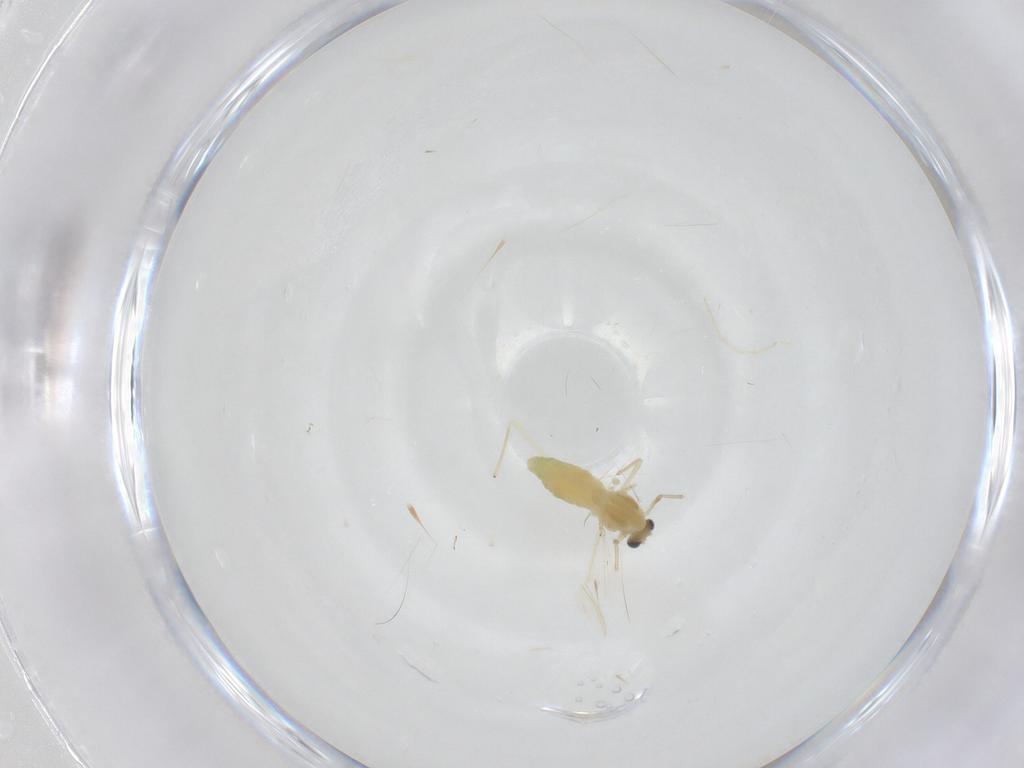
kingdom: Animalia
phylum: Arthropoda
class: Insecta
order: Diptera
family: Chironomidae
